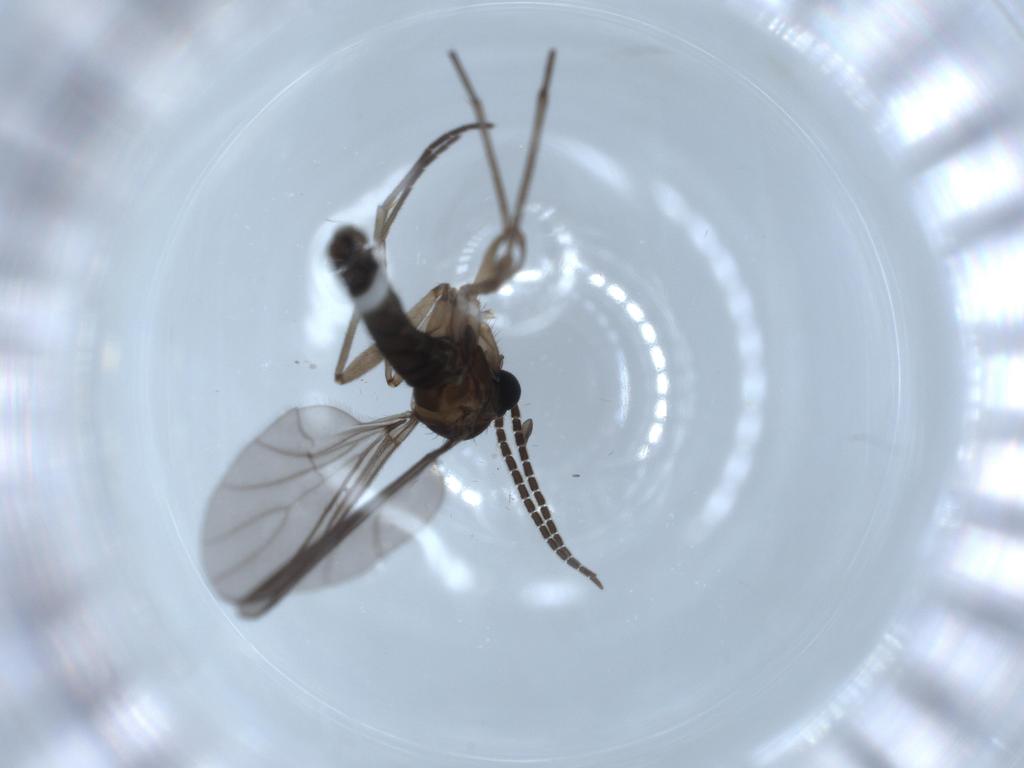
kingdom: Animalia
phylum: Arthropoda
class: Insecta
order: Diptera
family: Sciaridae
